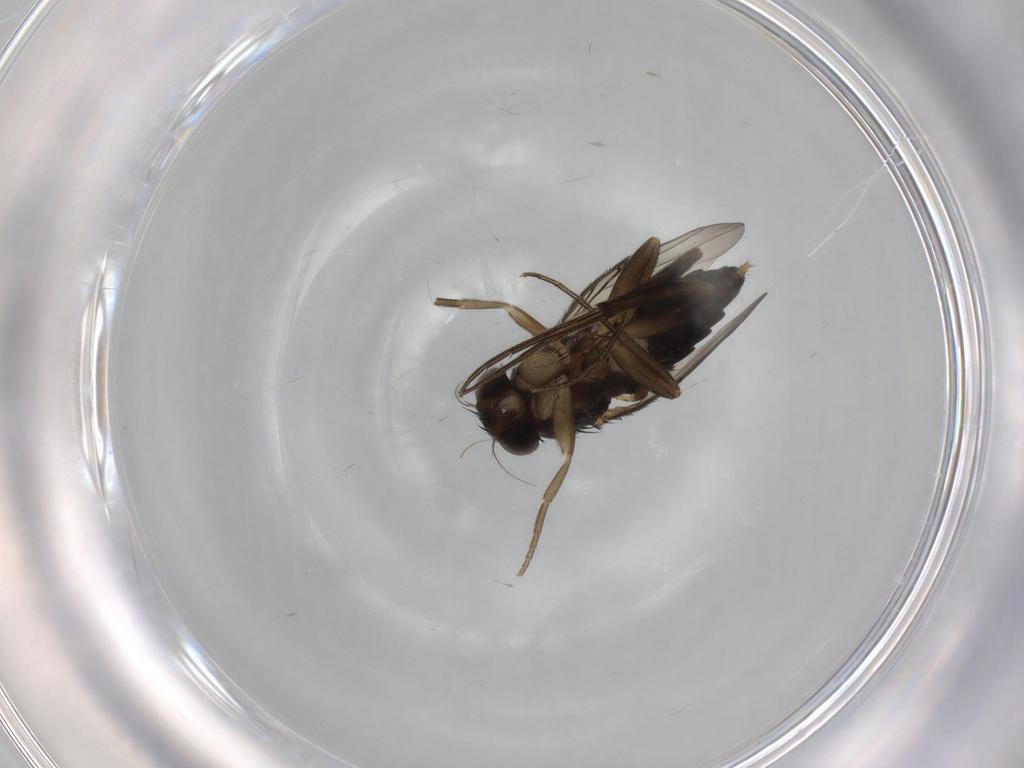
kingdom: Animalia
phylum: Arthropoda
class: Insecta
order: Diptera
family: Phoridae
